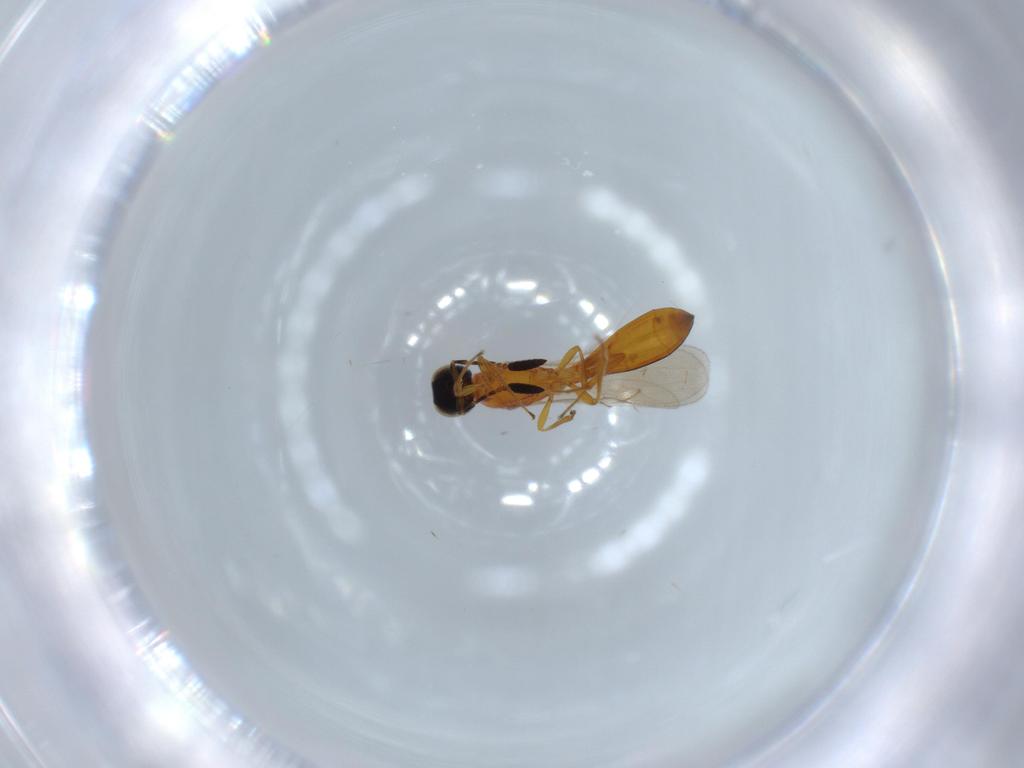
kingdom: Animalia
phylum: Arthropoda
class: Insecta
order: Hymenoptera
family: Scelionidae
